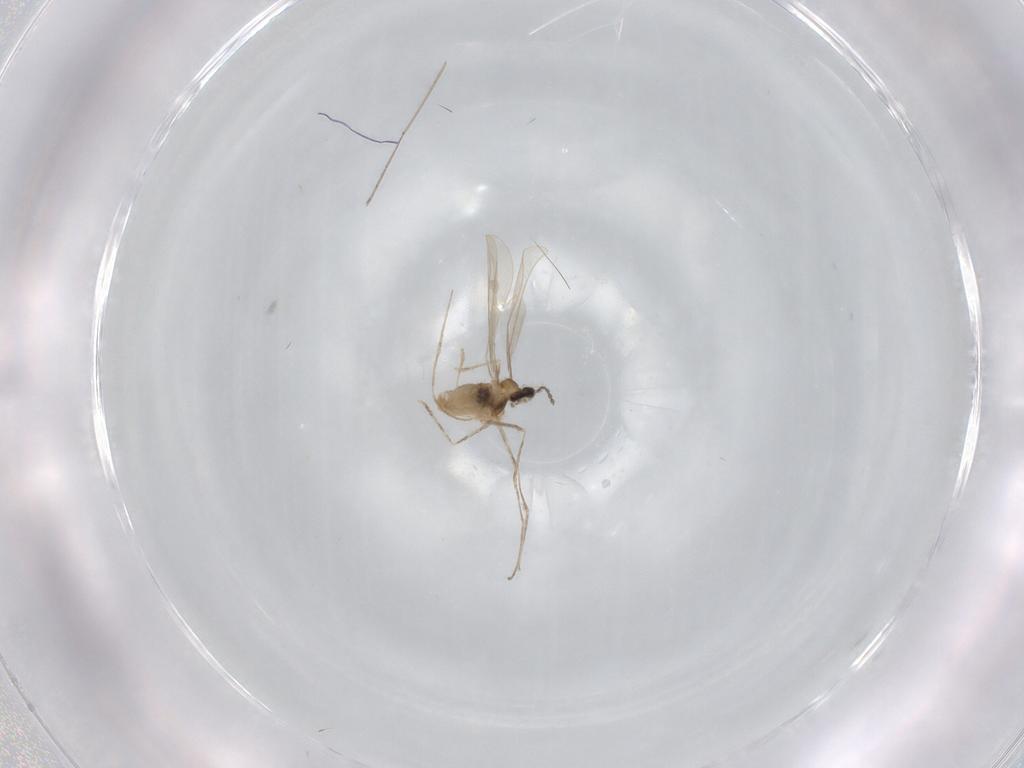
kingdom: Animalia
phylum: Arthropoda
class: Insecta
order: Diptera
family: Cecidomyiidae
